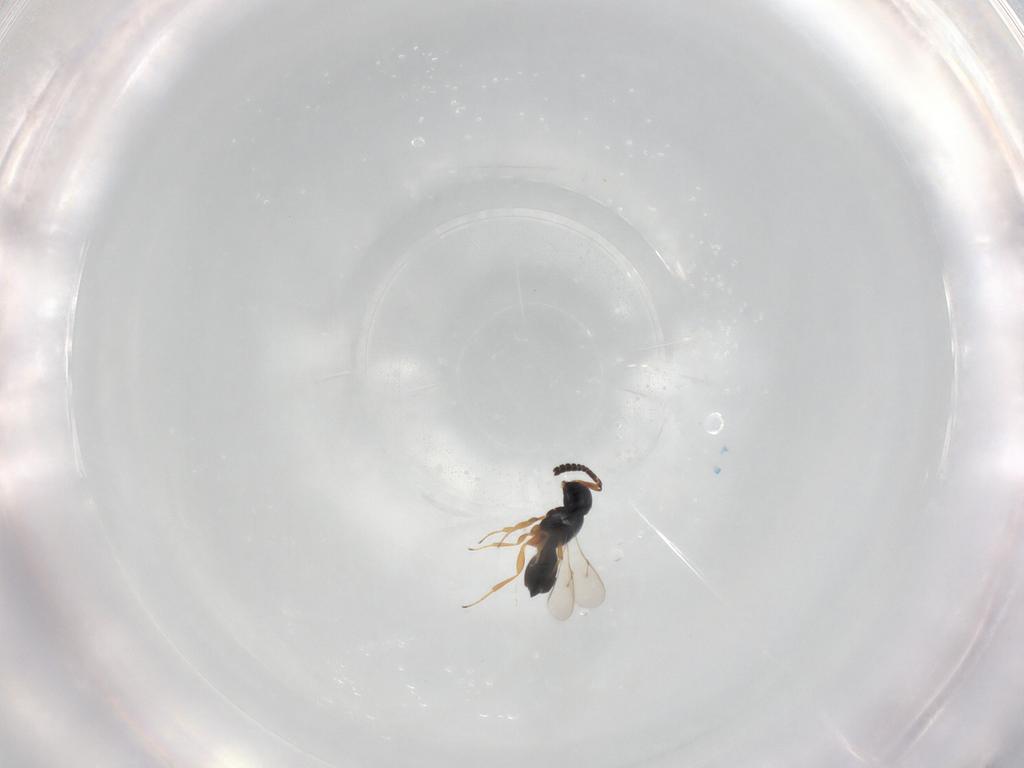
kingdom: Animalia
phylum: Arthropoda
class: Insecta
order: Hymenoptera
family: Scelionidae
